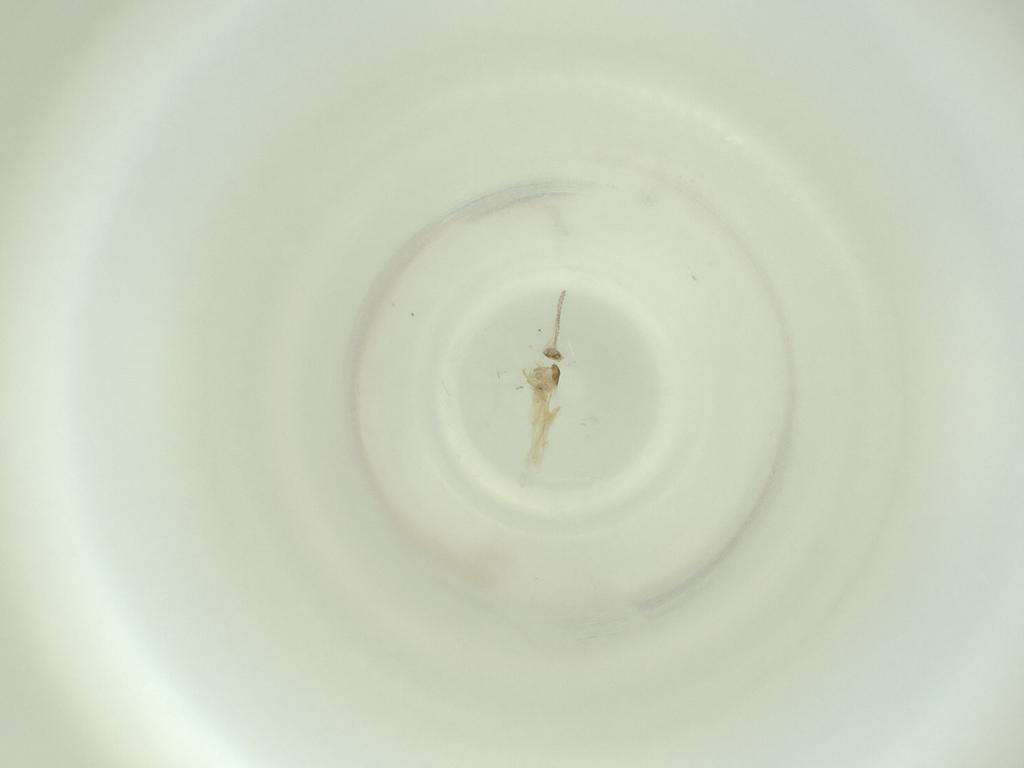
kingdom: Animalia
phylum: Arthropoda
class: Insecta
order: Diptera
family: Cecidomyiidae
